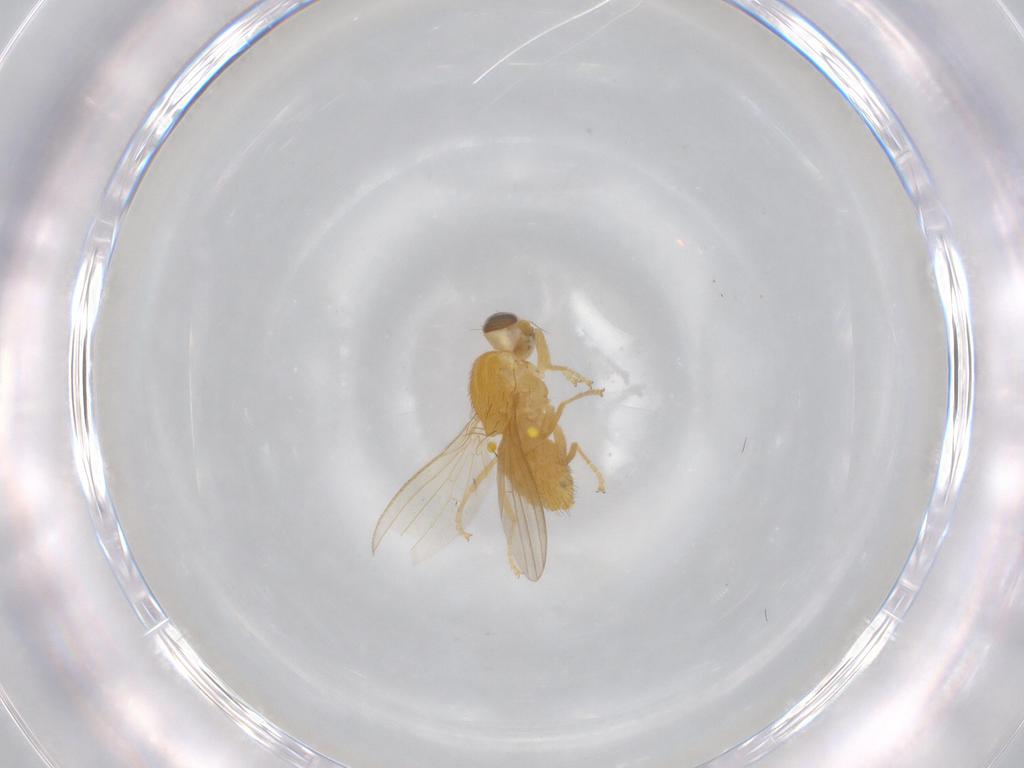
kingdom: Animalia
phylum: Arthropoda
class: Insecta
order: Diptera
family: Chyromyidae
